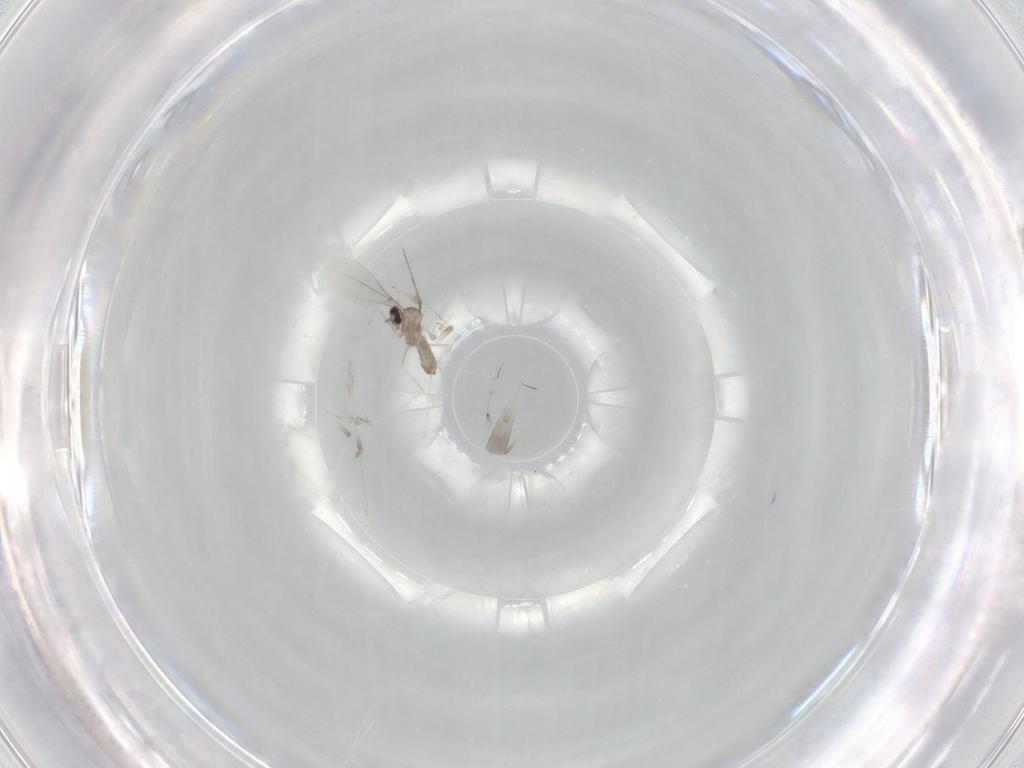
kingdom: Animalia
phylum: Arthropoda
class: Insecta
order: Diptera
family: Cecidomyiidae
